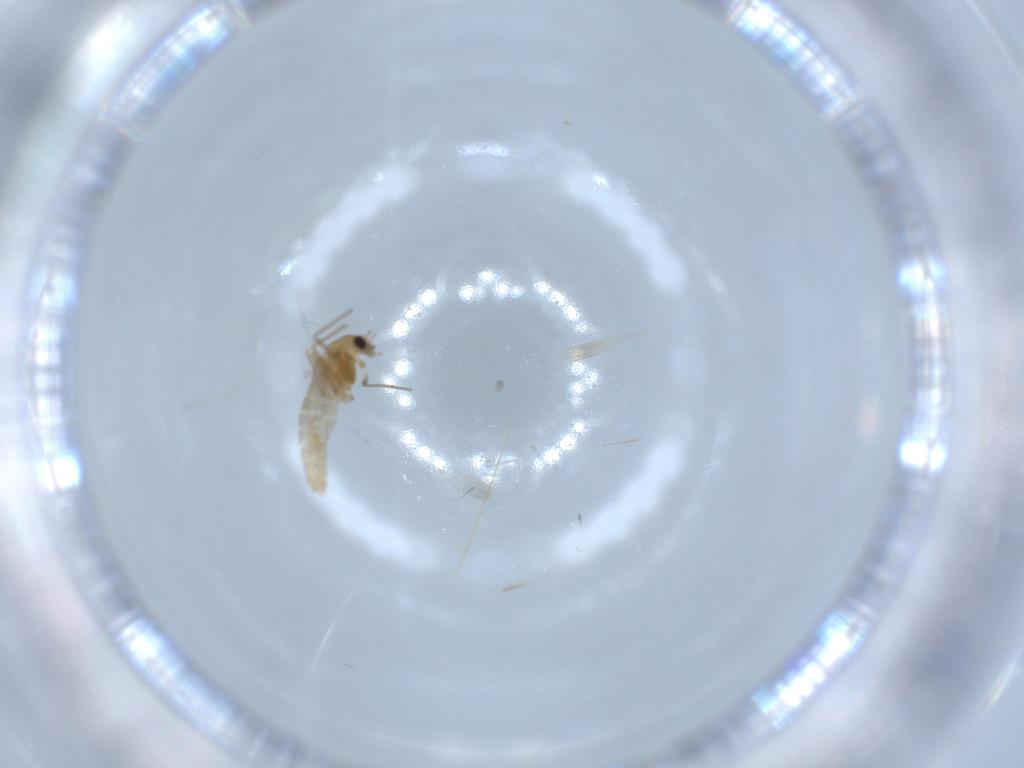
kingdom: Animalia
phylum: Arthropoda
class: Insecta
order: Diptera
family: Chironomidae
